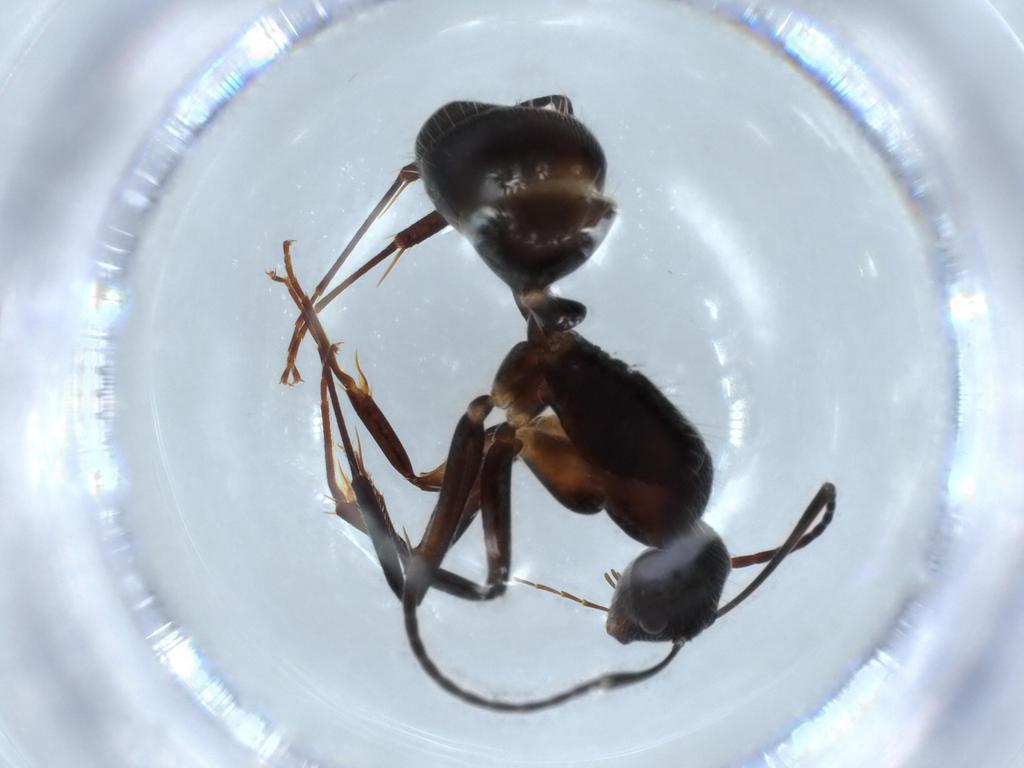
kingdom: Animalia
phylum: Arthropoda
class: Insecta
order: Hymenoptera
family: Formicidae
